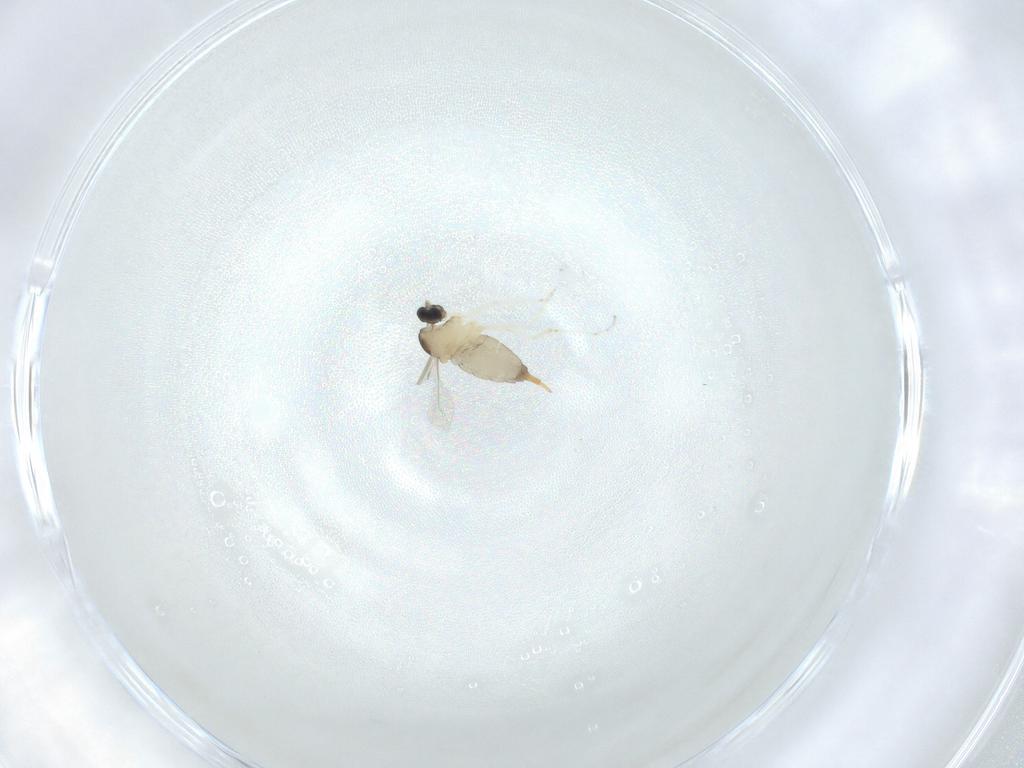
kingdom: Animalia
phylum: Arthropoda
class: Insecta
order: Diptera
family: Cecidomyiidae
